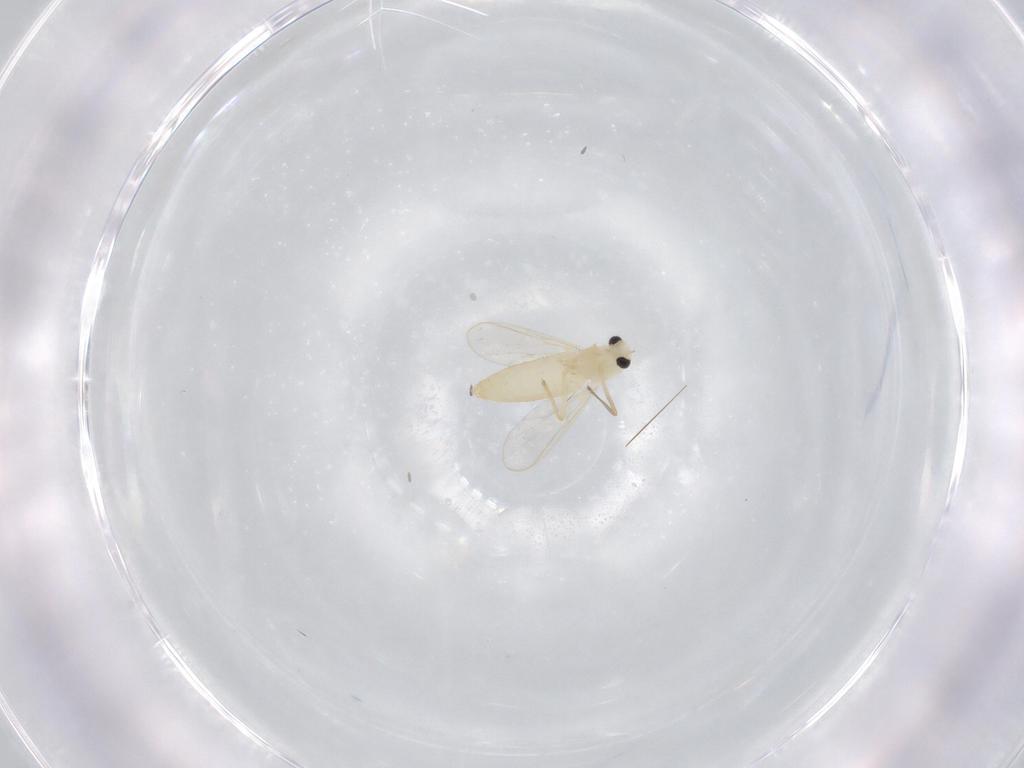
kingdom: Animalia
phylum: Arthropoda
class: Insecta
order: Diptera
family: Chironomidae
